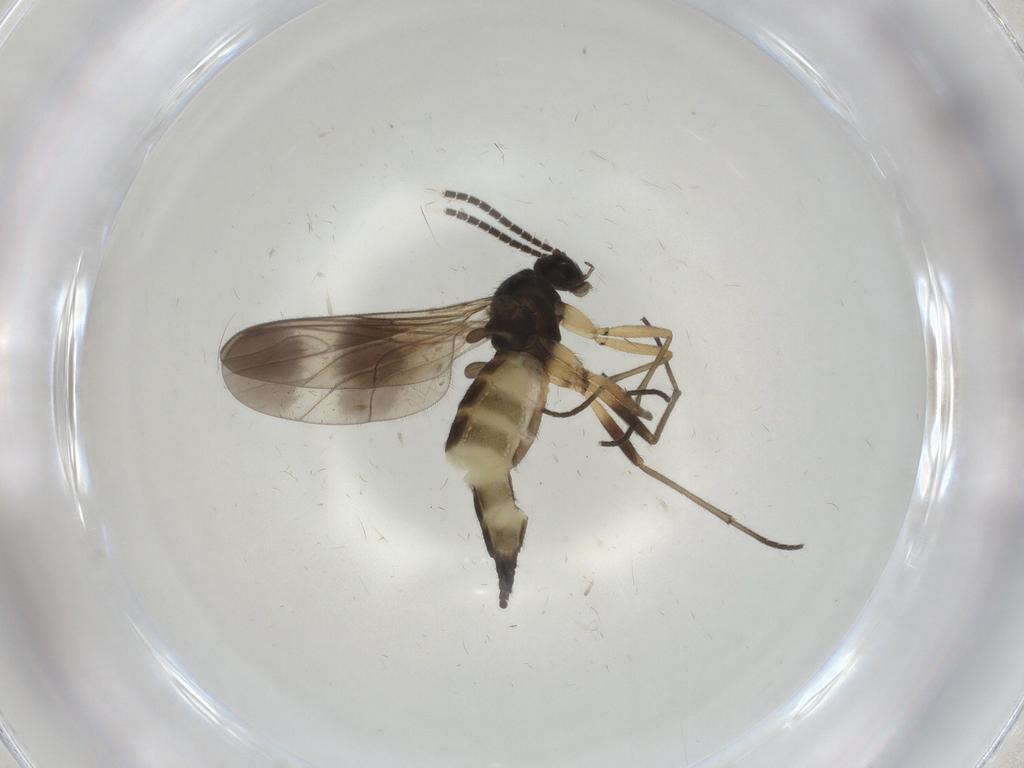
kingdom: Animalia
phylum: Arthropoda
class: Insecta
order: Diptera
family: Sciaridae
